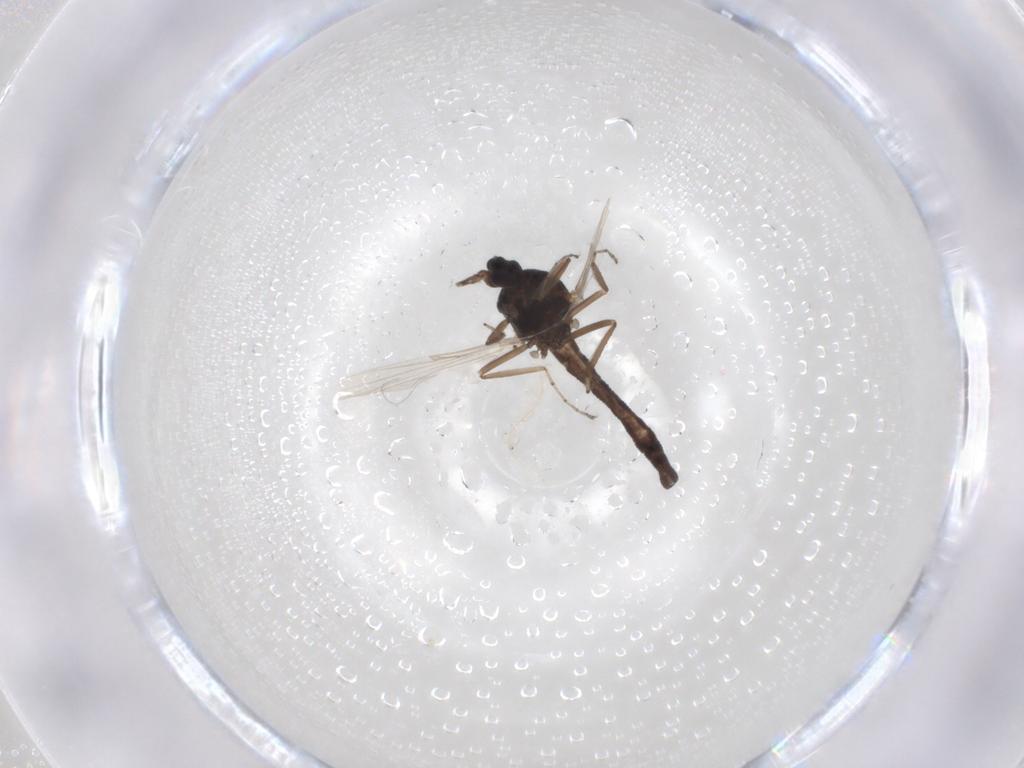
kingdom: Animalia
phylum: Arthropoda
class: Insecta
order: Diptera
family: Ceratopogonidae
